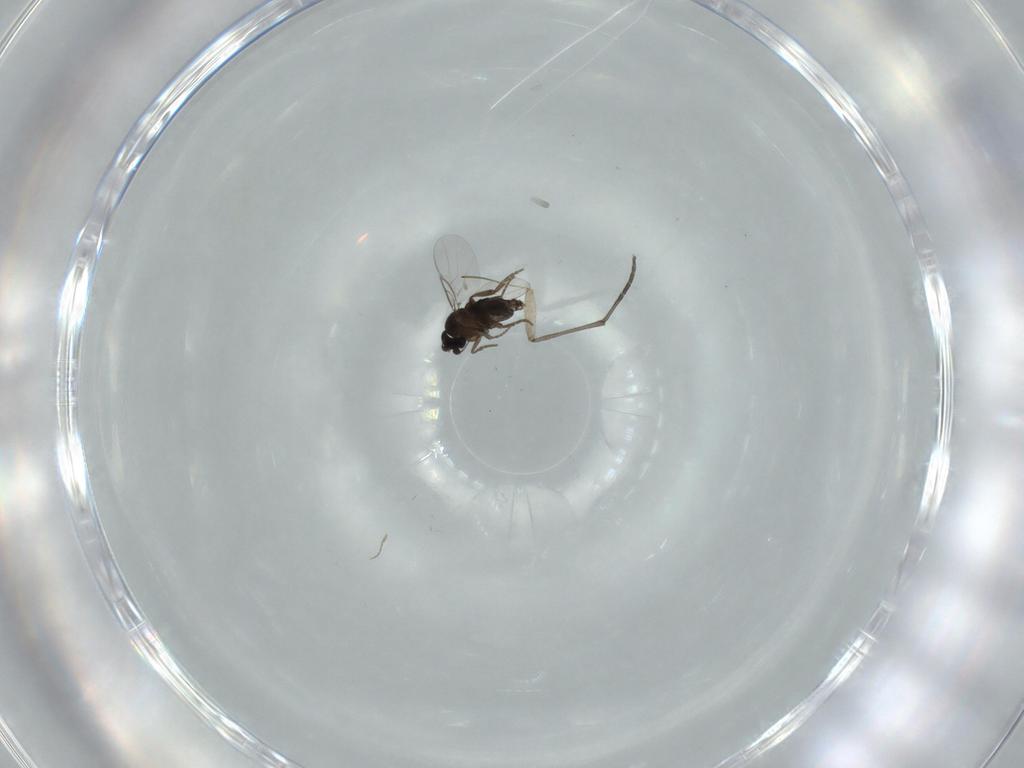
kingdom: Animalia
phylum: Arthropoda
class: Insecta
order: Diptera
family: Phoridae
